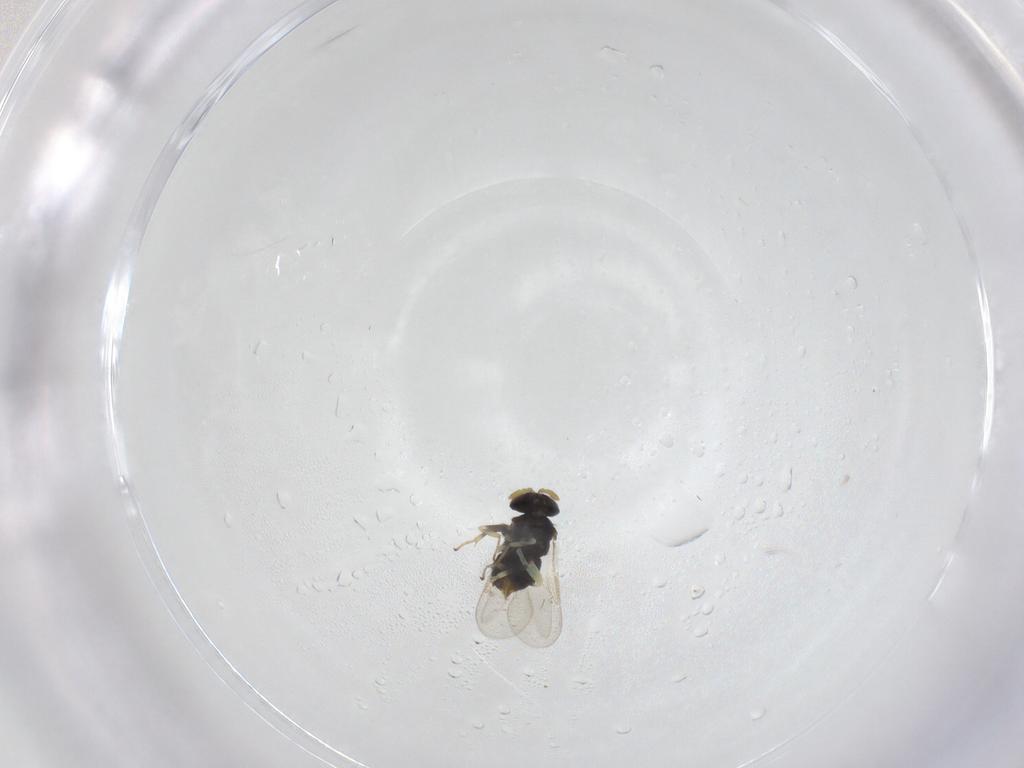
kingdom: Animalia
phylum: Arthropoda
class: Insecta
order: Hymenoptera
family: Aphelinidae
